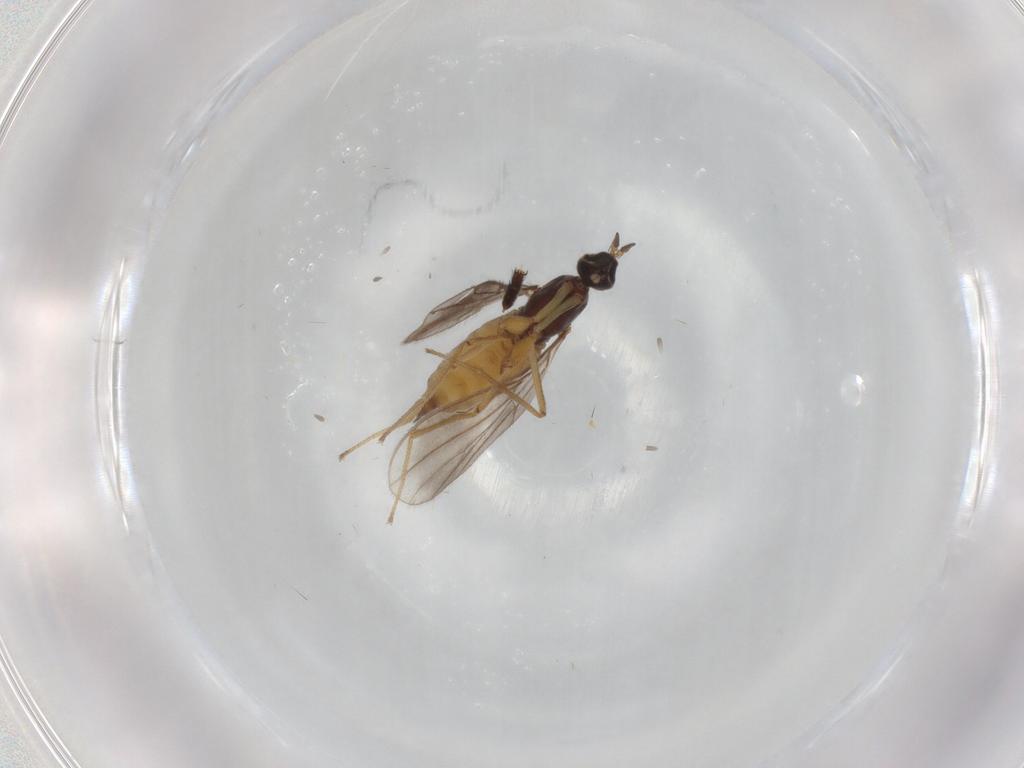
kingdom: Animalia
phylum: Arthropoda
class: Insecta
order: Diptera
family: Empididae
